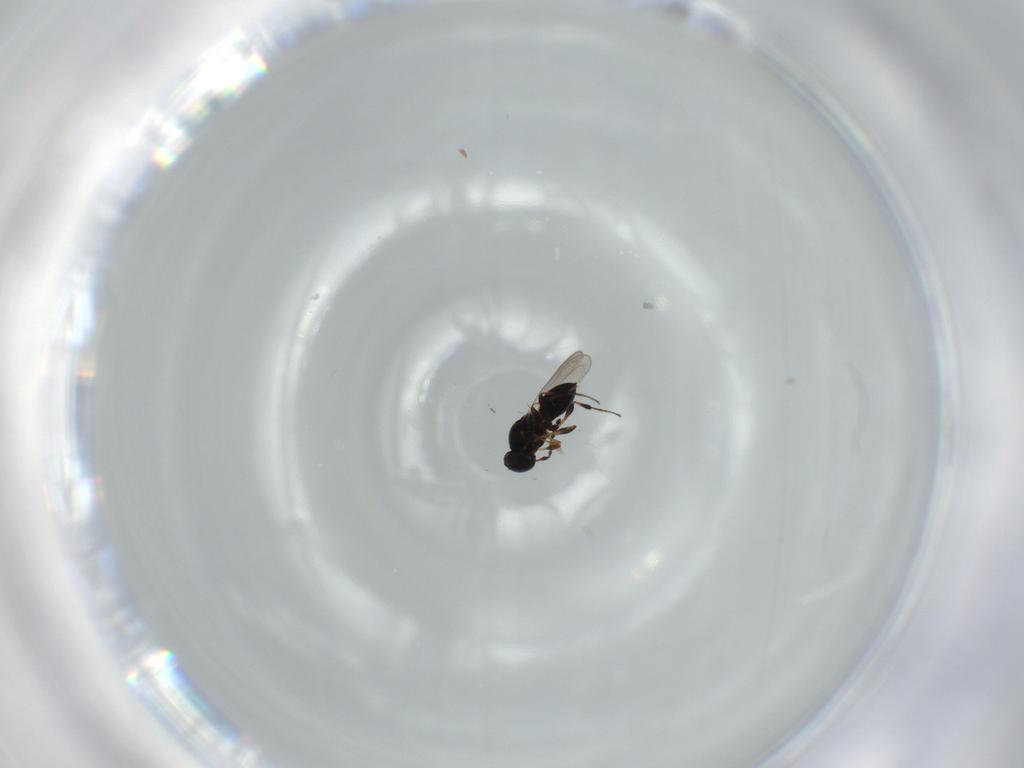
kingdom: Animalia
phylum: Arthropoda
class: Insecta
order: Hymenoptera
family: Platygastridae
